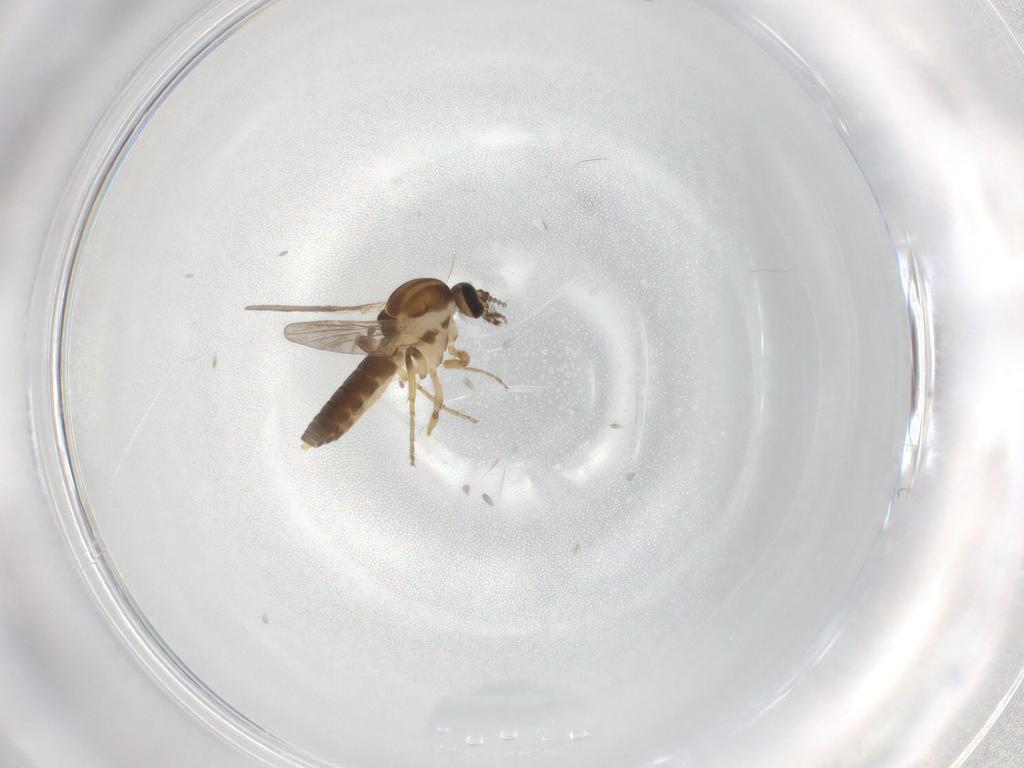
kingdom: Animalia
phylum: Arthropoda
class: Insecta
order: Diptera
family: Ceratopogonidae
